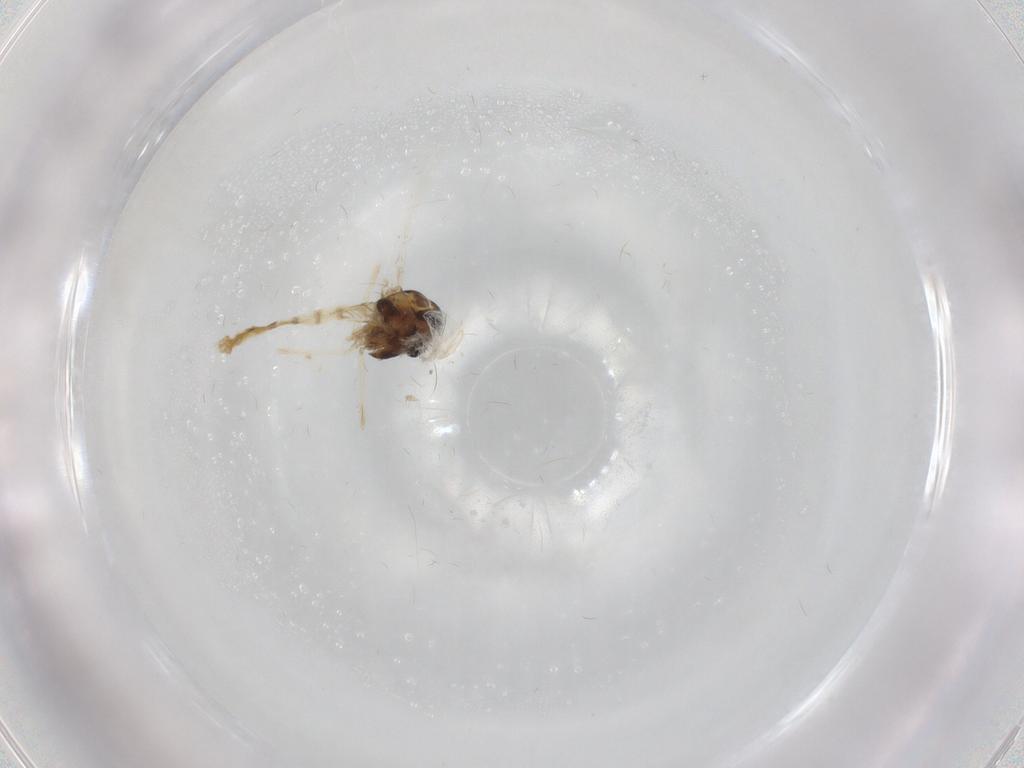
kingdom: Animalia
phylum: Arthropoda
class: Insecta
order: Diptera
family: Chironomidae
